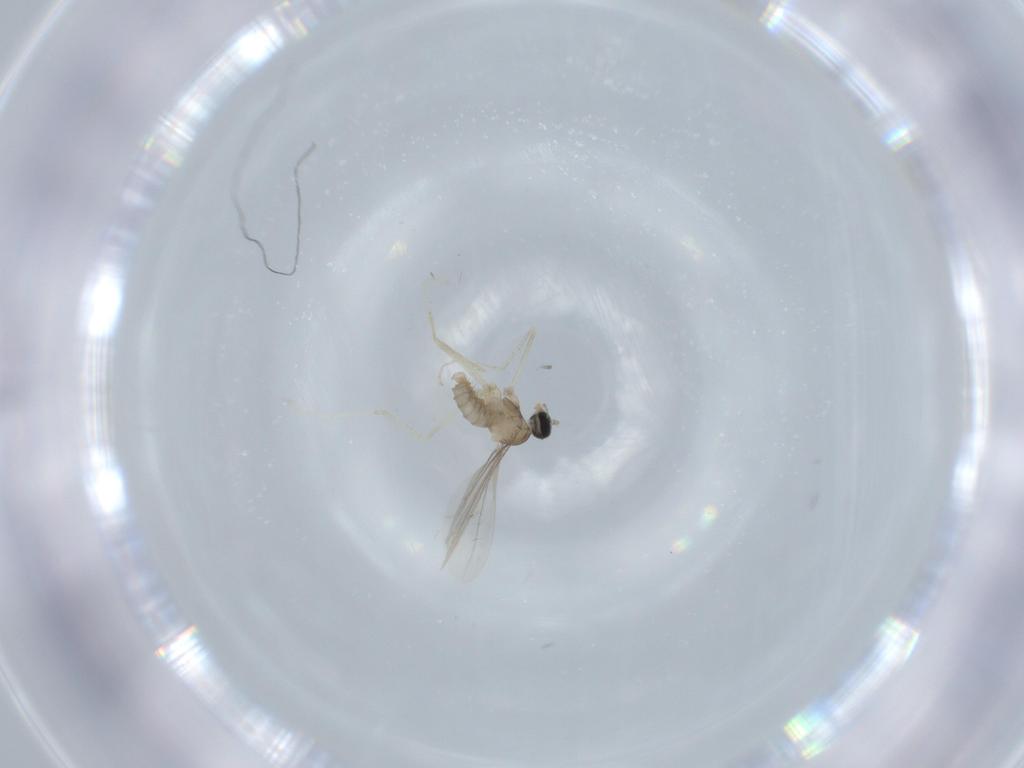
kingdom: Animalia
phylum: Arthropoda
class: Insecta
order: Diptera
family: Cecidomyiidae
